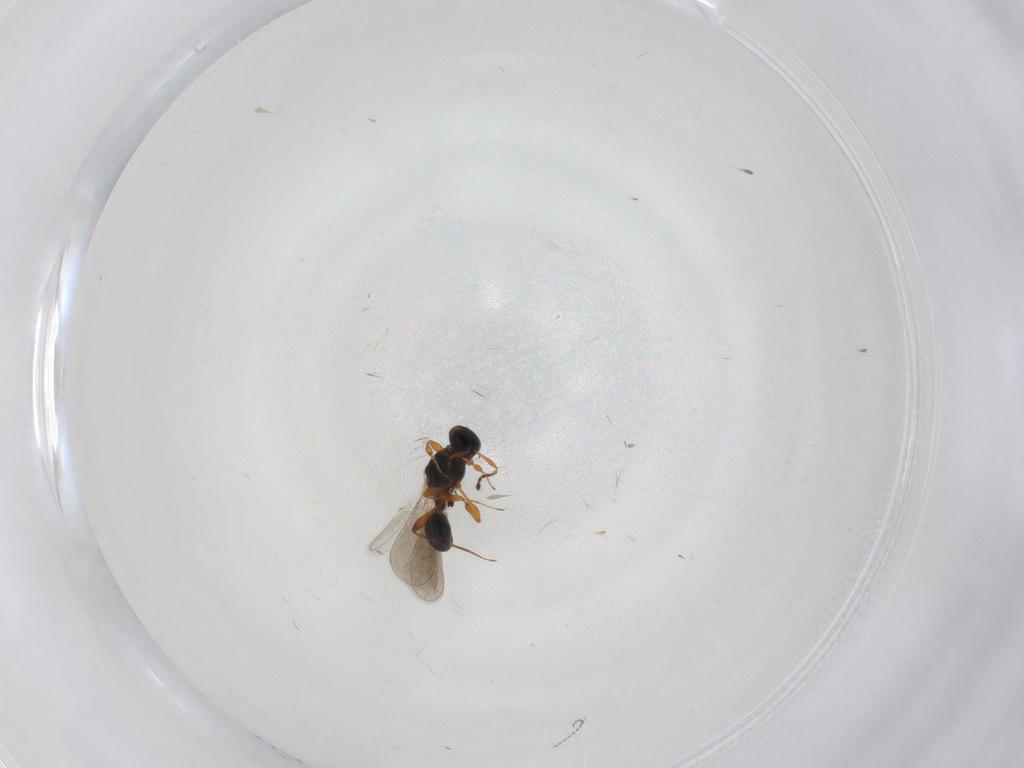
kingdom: Animalia
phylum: Arthropoda
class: Insecta
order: Hymenoptera
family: Platygastridae
